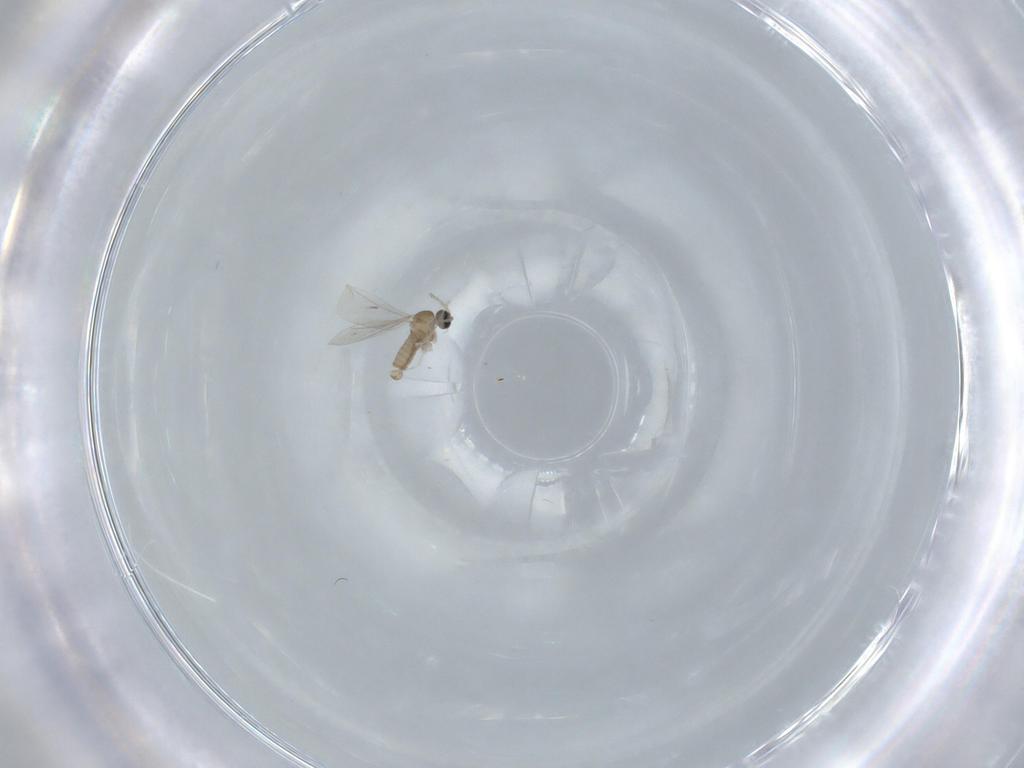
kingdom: Animalia
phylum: Arthropoda
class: Insecta
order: Diptera
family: Cecidomyiidae
